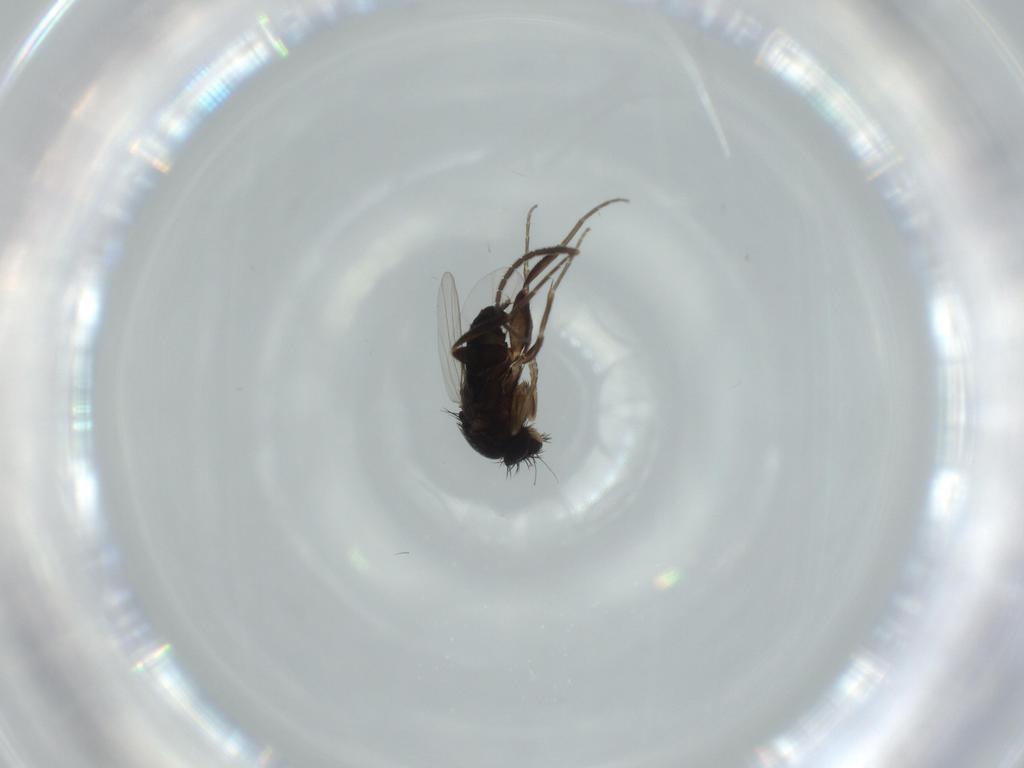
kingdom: Animalia
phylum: Arthropoda
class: Insecta
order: Diptera
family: Phoridae
